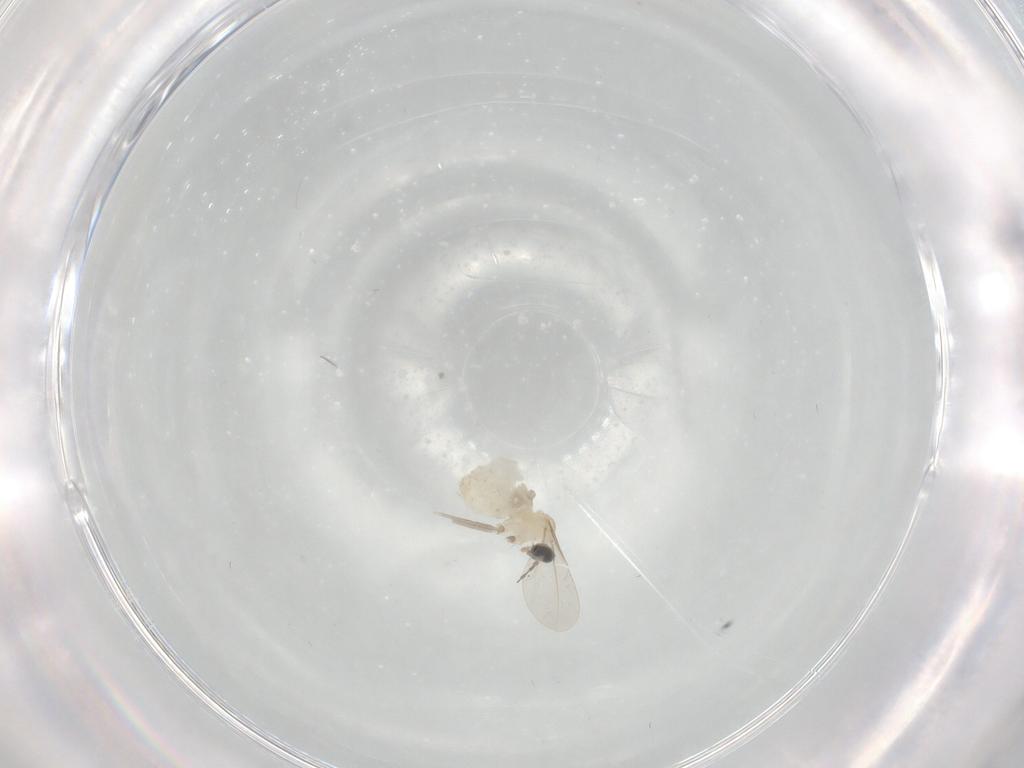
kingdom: Animalia
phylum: Arthropoda
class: Insecta
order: Diptera
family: Cecidomyiidae
